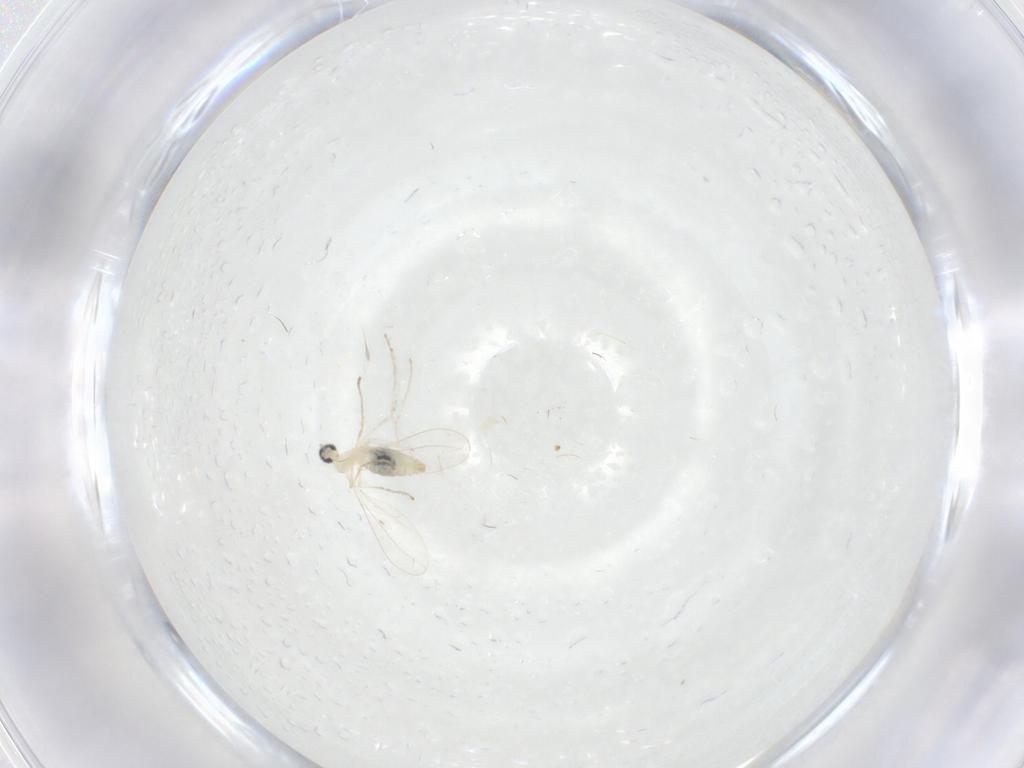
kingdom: Animalia
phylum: Arthropoda
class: Insecta
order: Diptera
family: Cecidomyiidae
